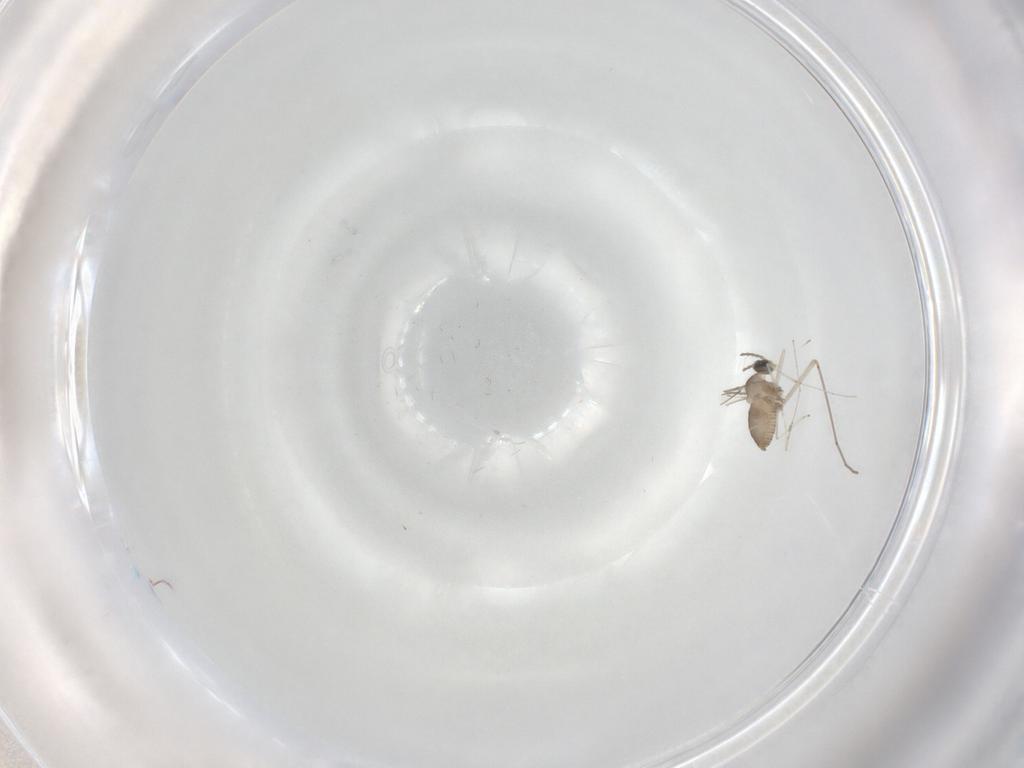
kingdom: Animalia
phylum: Arthropoda
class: Insecta
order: Diptera
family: Cecidomyiidae
